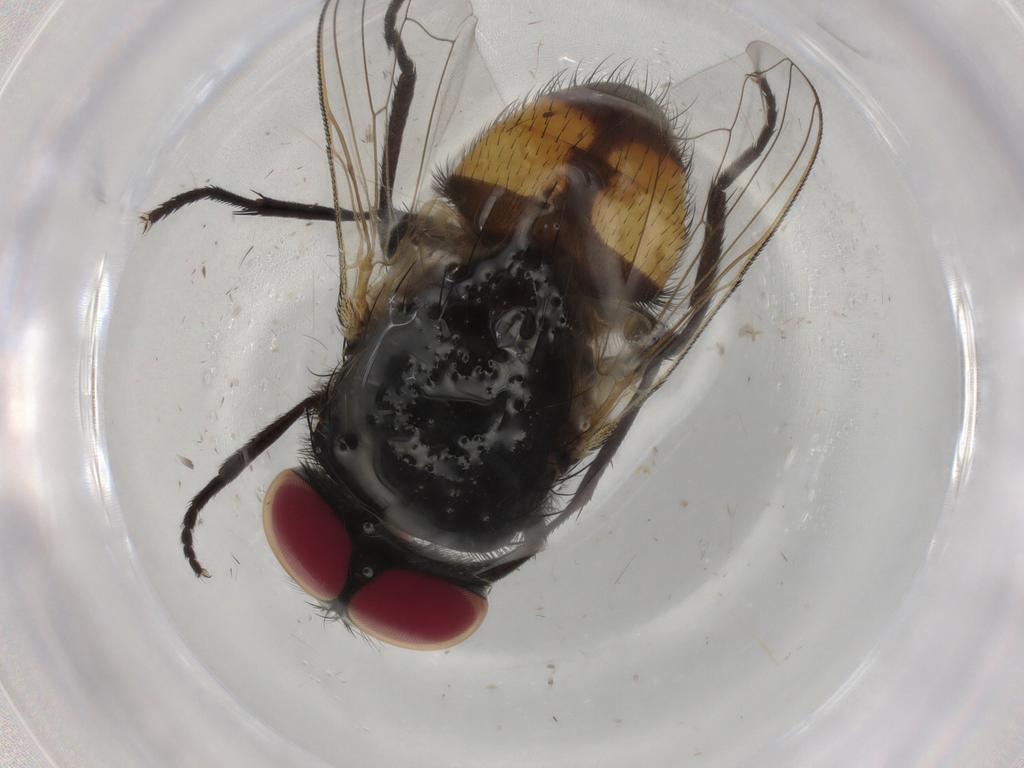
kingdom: Animalia
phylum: Arthropoda
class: Insecta
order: Diptera
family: Muscidae
